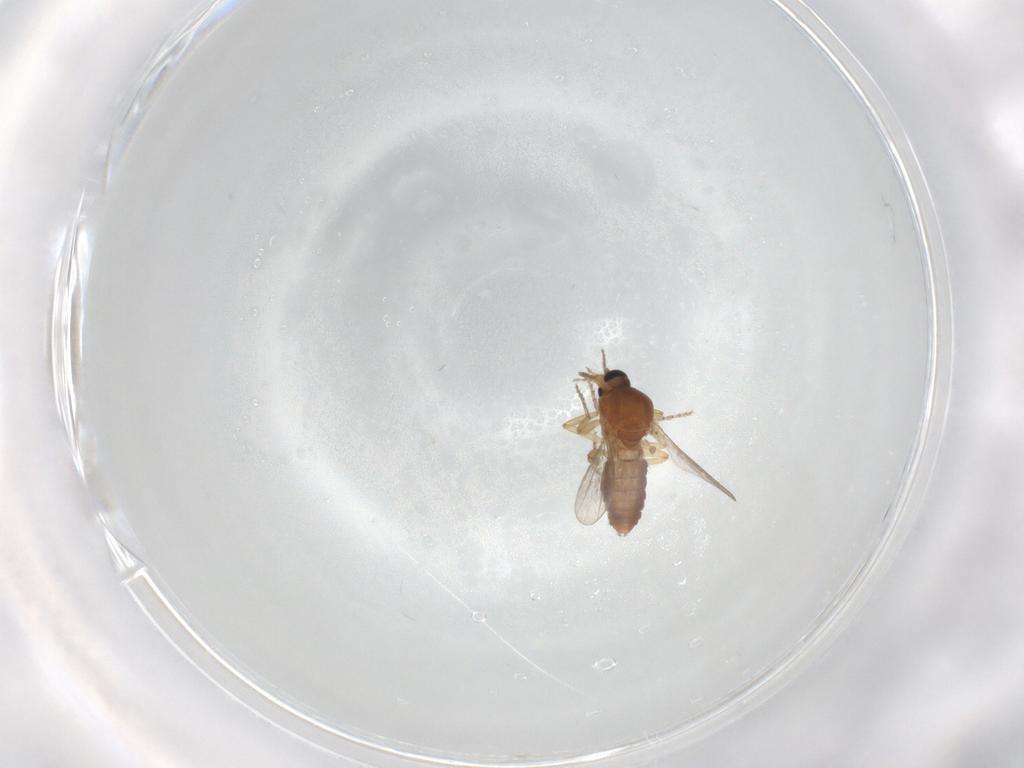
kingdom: Animalia
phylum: Arthropoda
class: Insecta
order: Diptera
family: Ceratopogonidae
